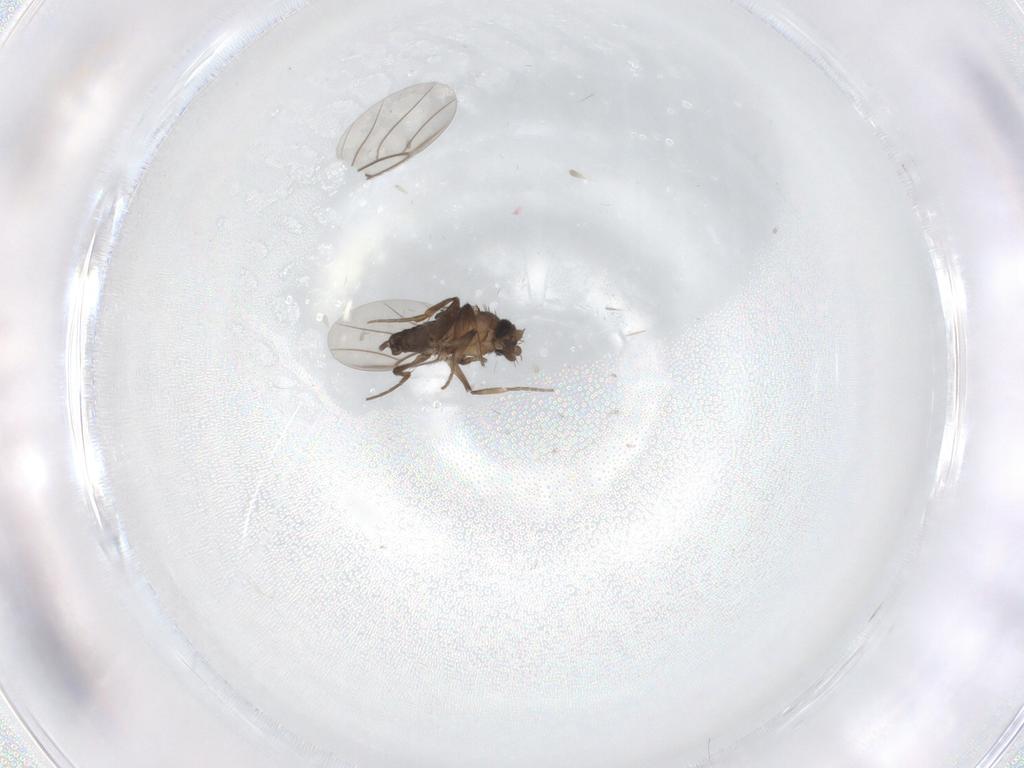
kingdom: Animalia
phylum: Arthropoda
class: Insecta
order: Diptera
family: Phoridae
